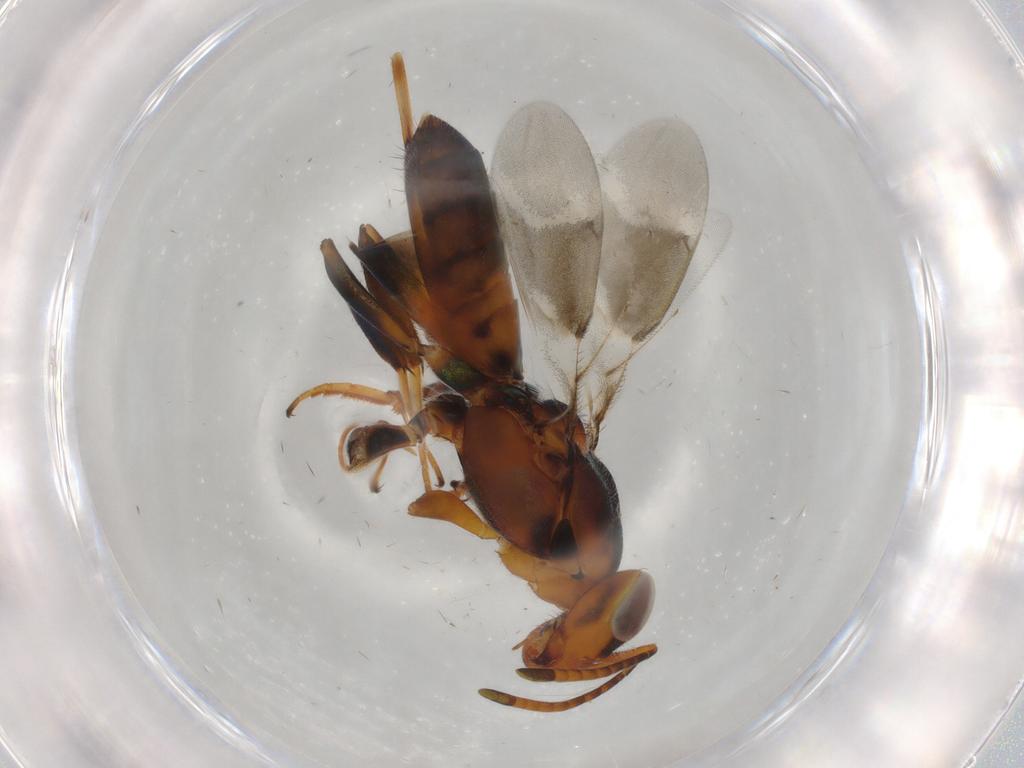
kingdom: Animalia
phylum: Arthropoda
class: Insecta
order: Hymenoptera
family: Eupelmidae
